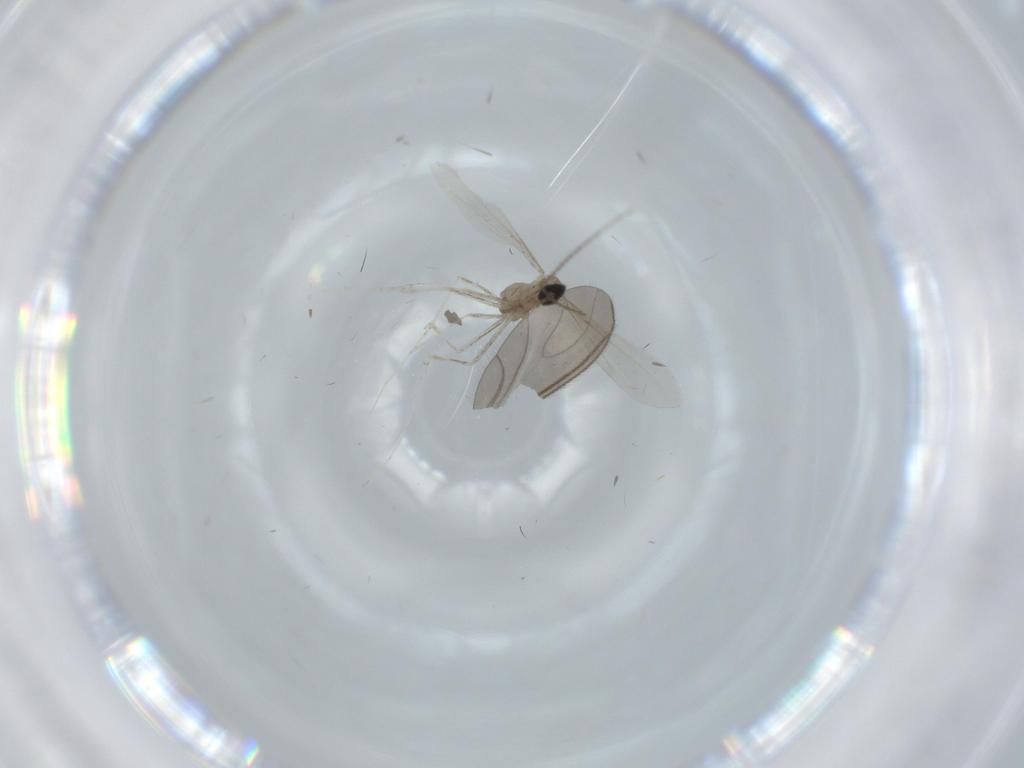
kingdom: Animalia
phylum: Arthropoda
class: Insecta
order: Diptera
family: Cecidomyiidae
